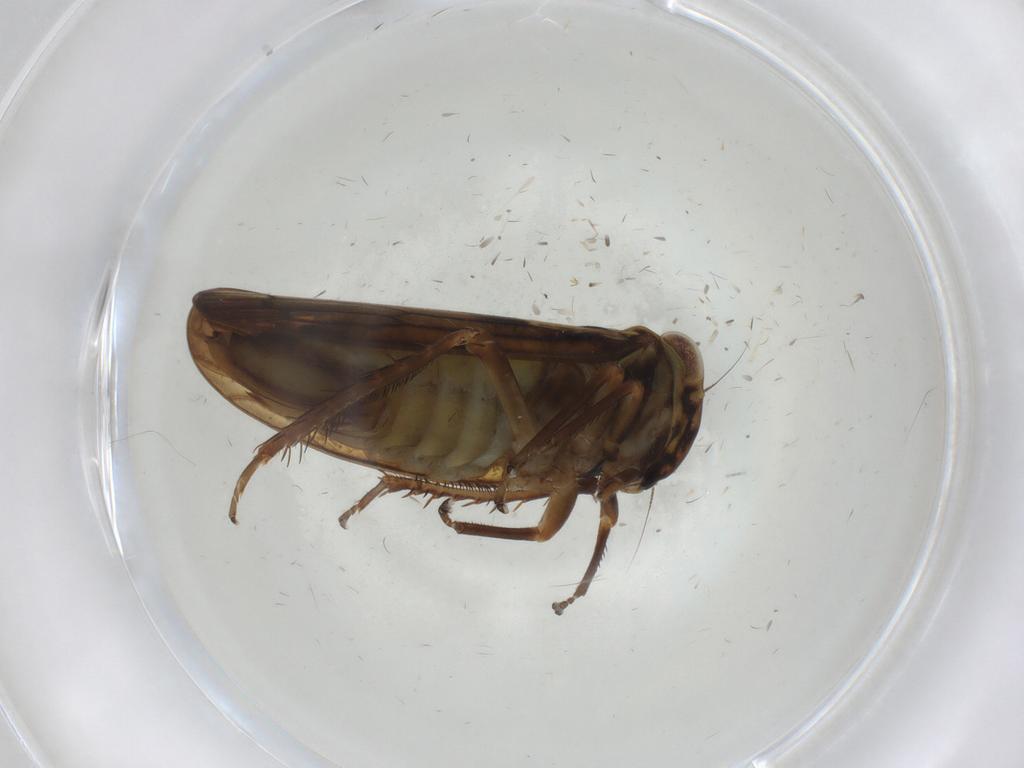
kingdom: Animalia
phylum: Arthropoda
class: Insecta
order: Hemiptera
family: Cicadellidae
